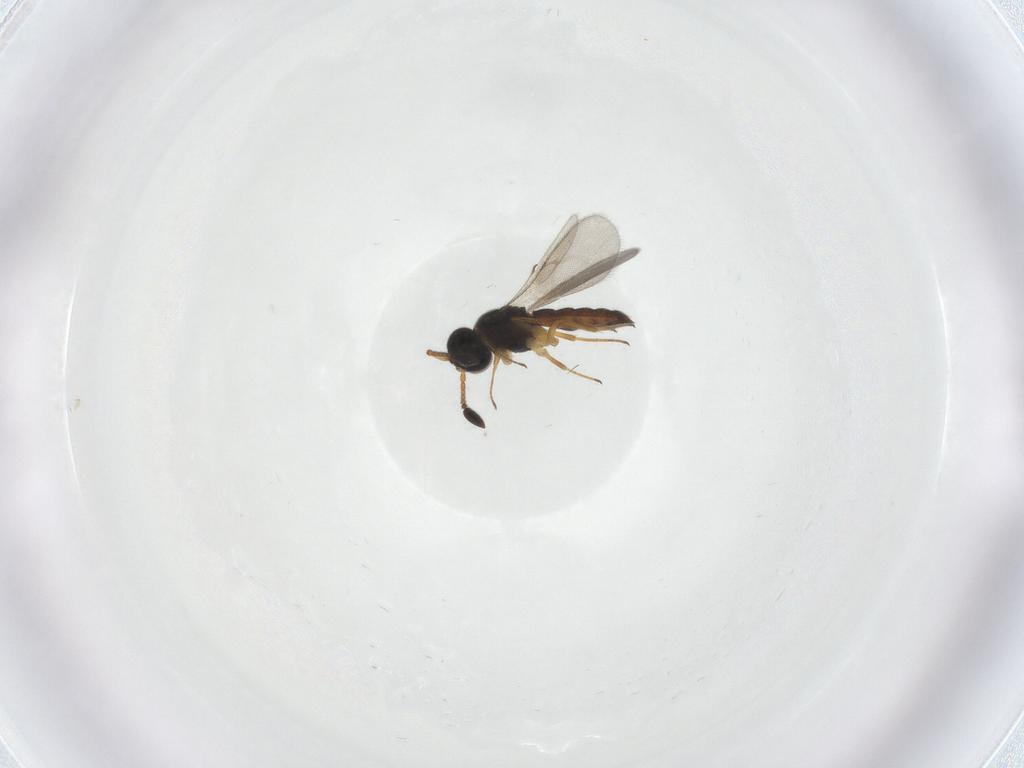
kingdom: Animalia
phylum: Arthropoda
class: Insecta
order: Hymenoptera
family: Scelionidae
